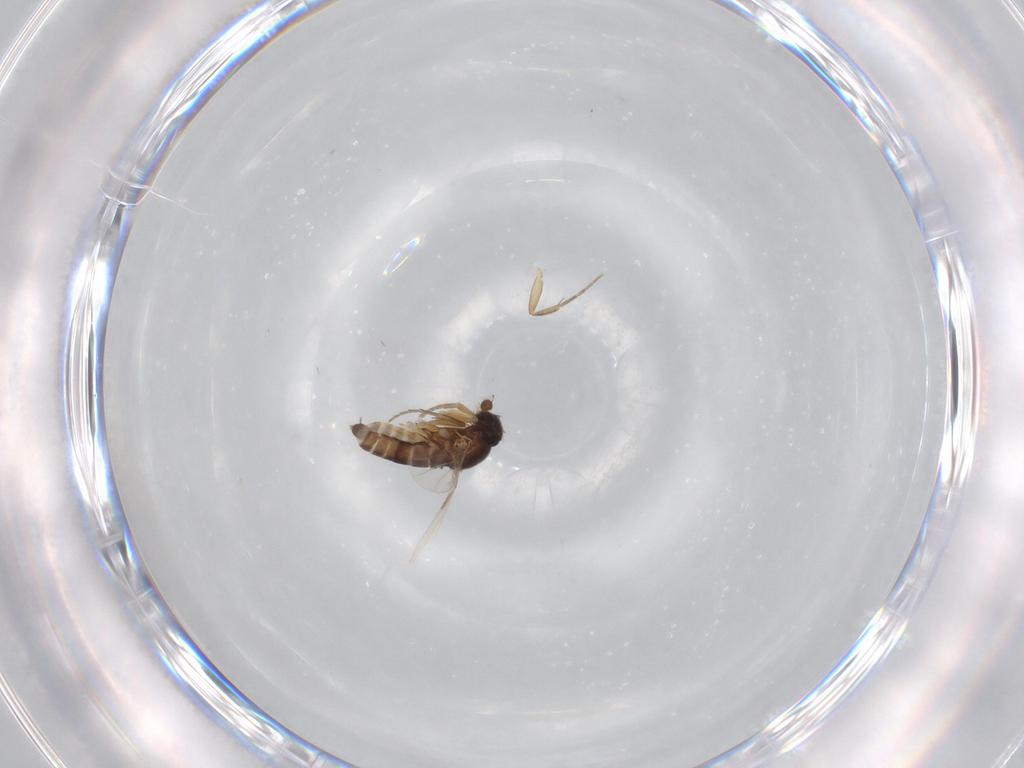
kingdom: Animalia
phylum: Arthropoda
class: Insecta
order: Diptera
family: Phoridae
